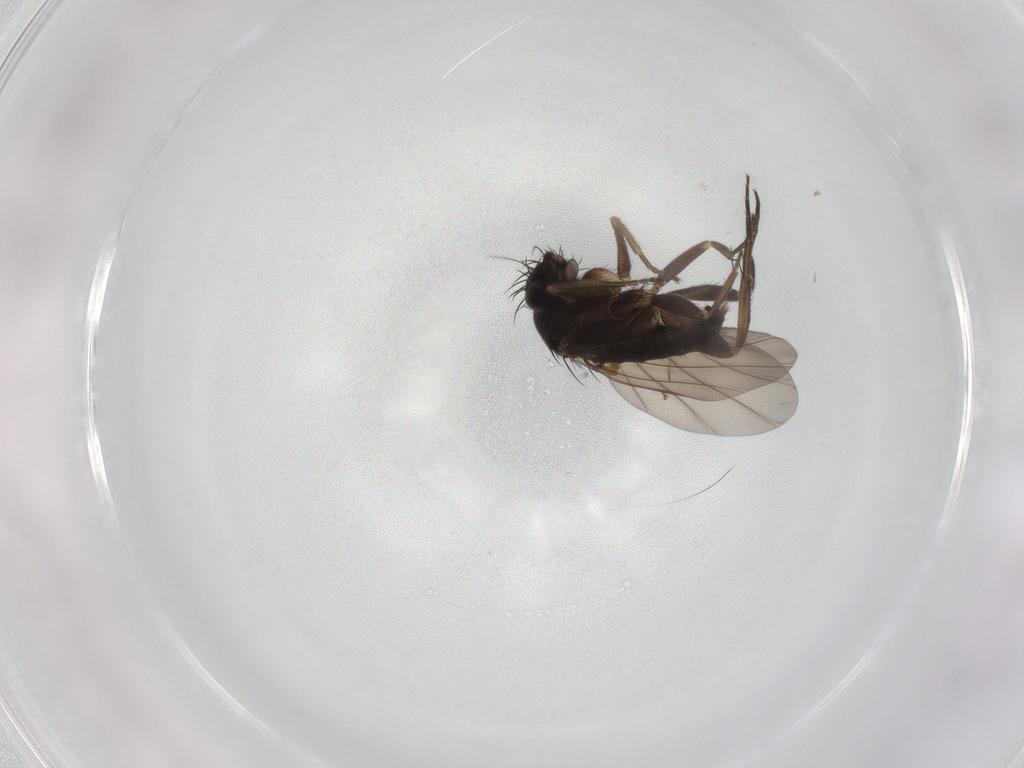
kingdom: Animalia
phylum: Arthropoda
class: Insecta
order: Diptera
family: Phoridae
